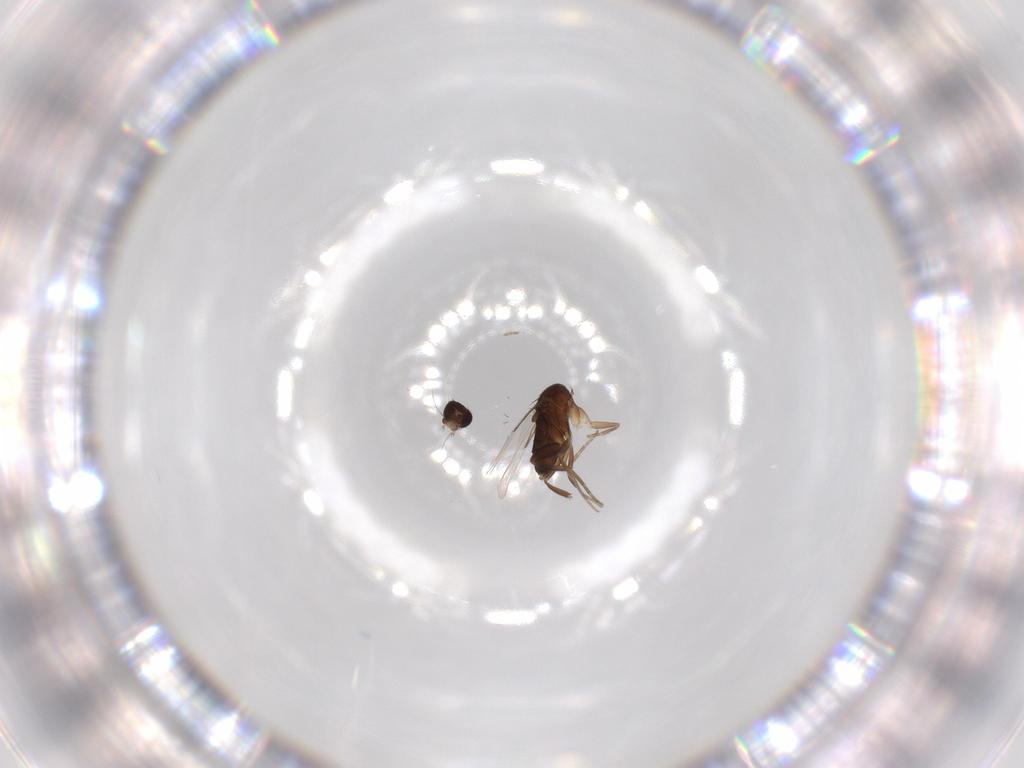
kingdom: Animalia
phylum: Arthropoda
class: Insecta
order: Diptera
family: Phoridae
